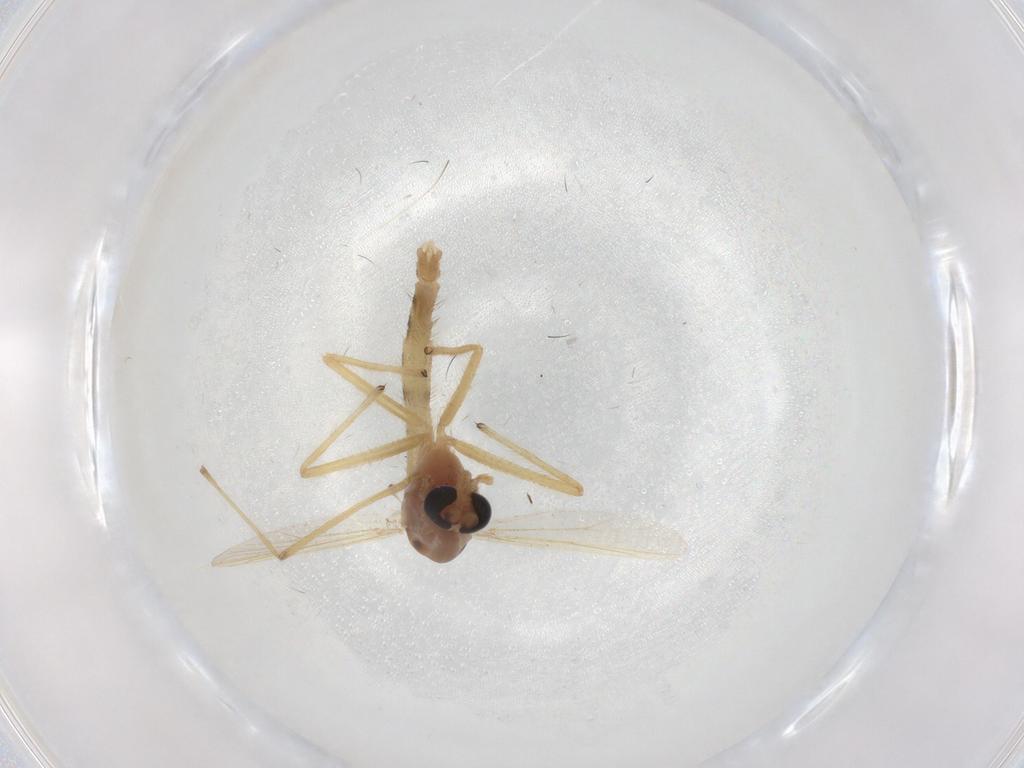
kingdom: Animalia
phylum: Arthropoda
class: Insecta
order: Diptera
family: Chironomidae
